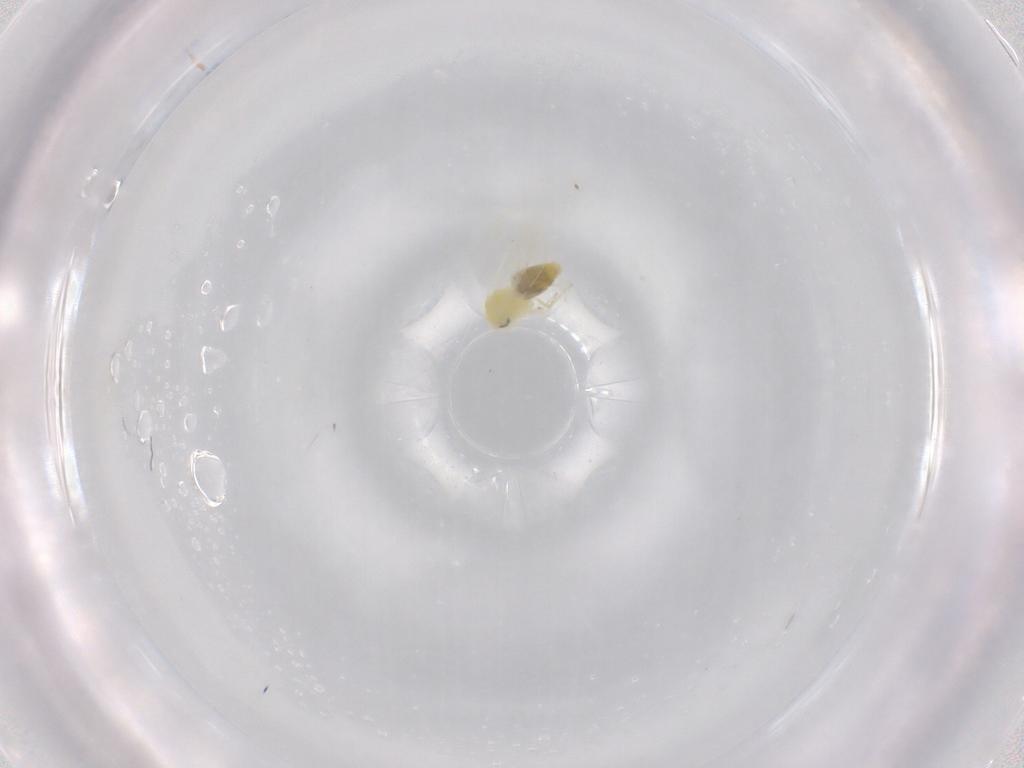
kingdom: Animalia
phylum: Arthropoda
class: Insecta
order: Hemiptera
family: Aleyrodidae
